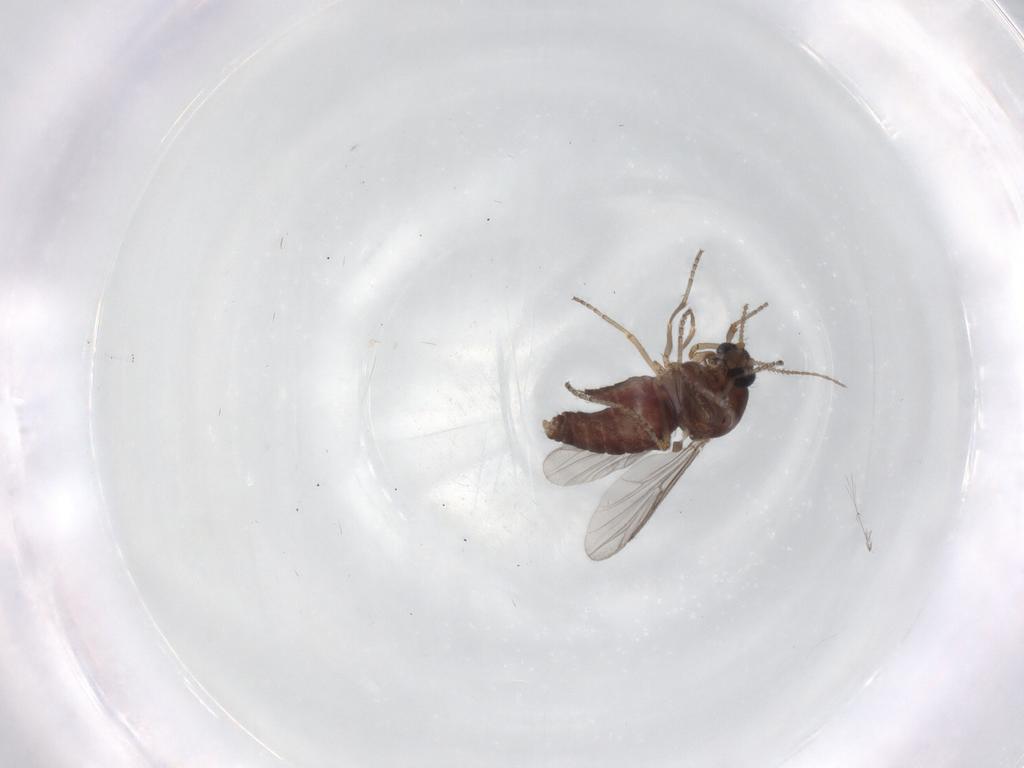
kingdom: Animalia
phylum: Arthropoda
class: Insecta
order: Diptera
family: Ceratopogonidae
